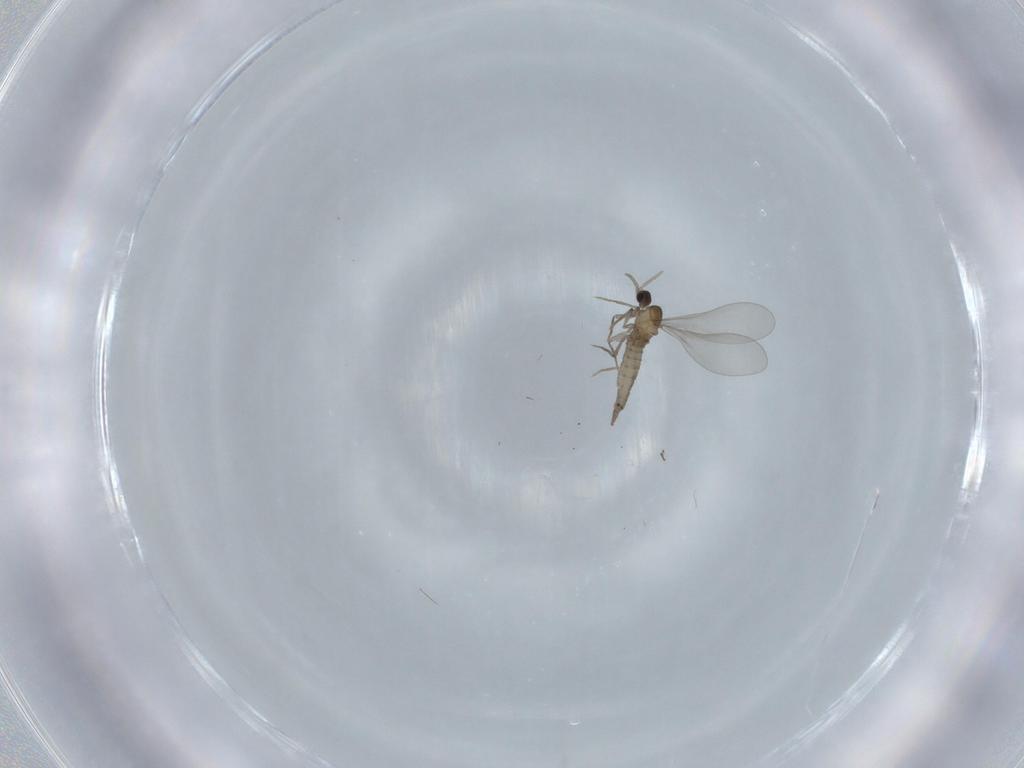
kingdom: Animalia
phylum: Arthropoda
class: Insecta
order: Diptera
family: Cecidomyiidae
